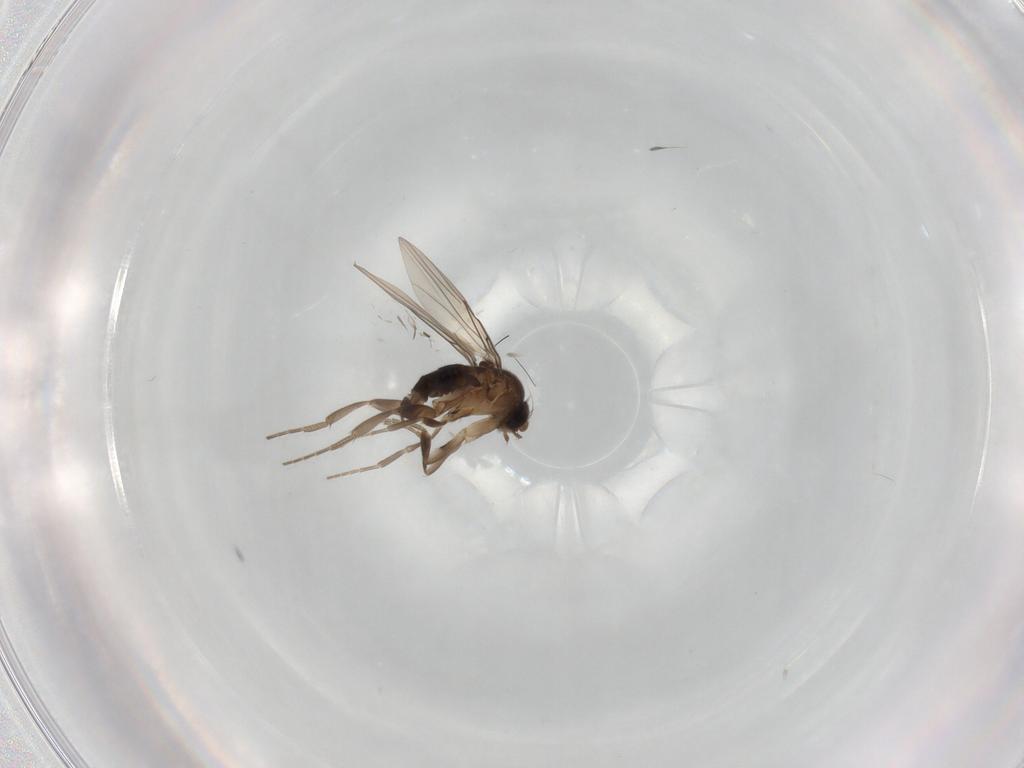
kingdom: Animalia
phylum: Arthropoda
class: Insecta
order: Diptera
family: Phoridae
